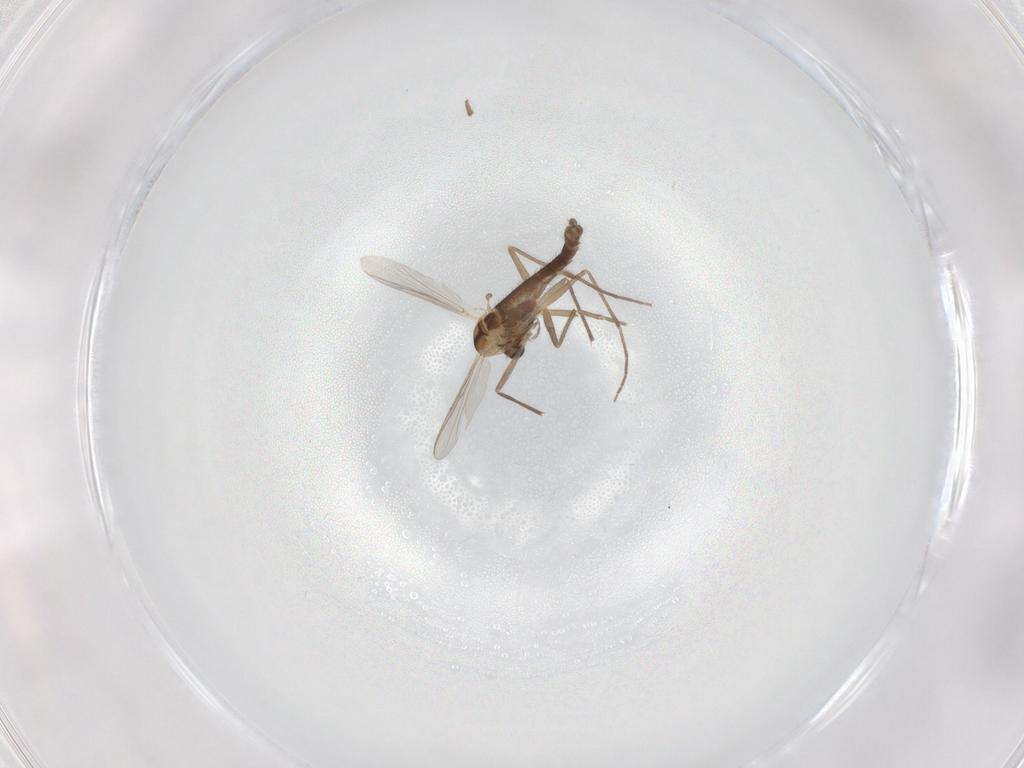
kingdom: Animalia
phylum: Arthropoda
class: Insecta
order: Diptera
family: Chironomidae
